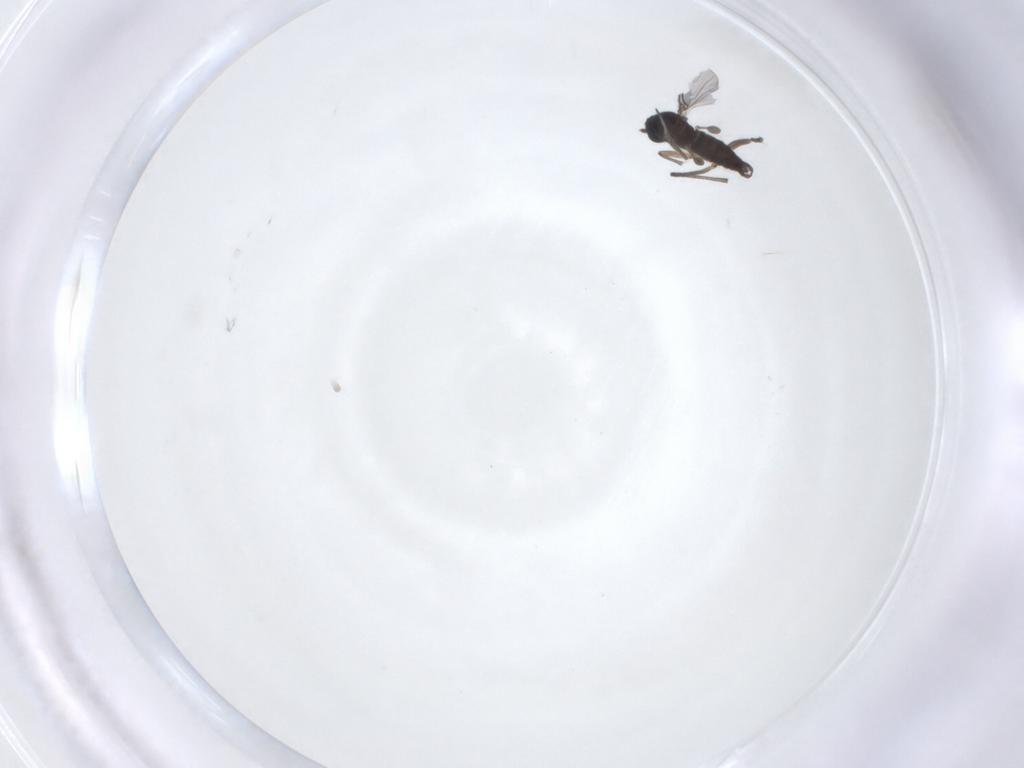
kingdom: Animalia
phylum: Arthropoda
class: Insecta
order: Diptera
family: Sciaridae
